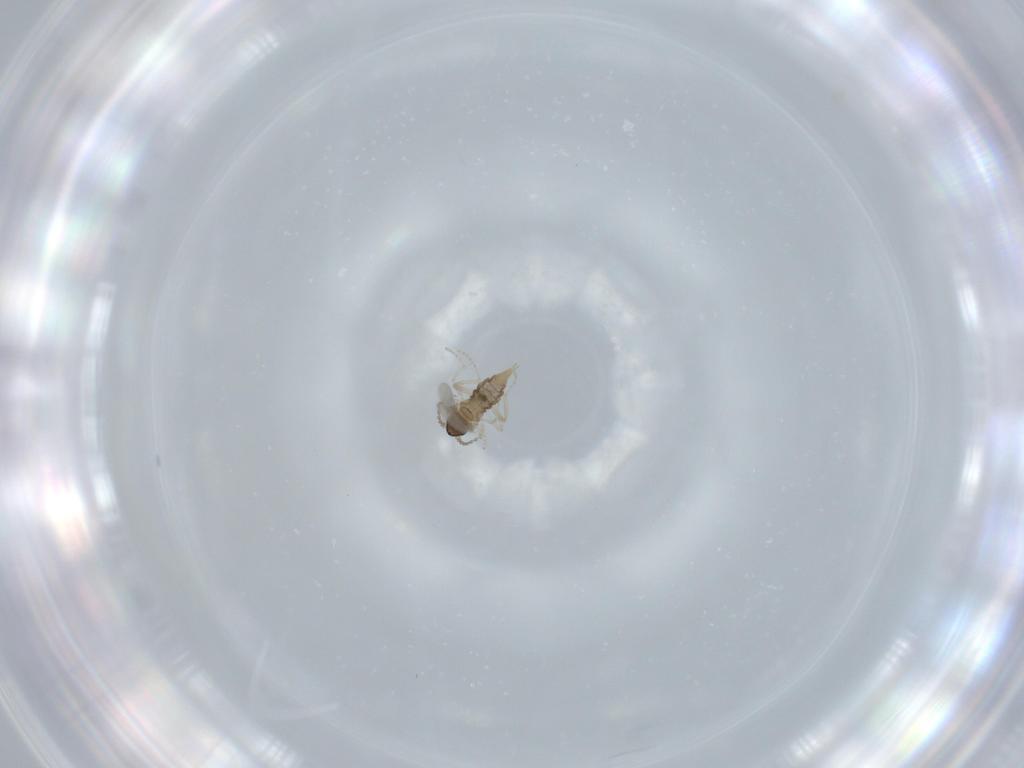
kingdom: Animalia
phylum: Arthropoda
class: Insecta
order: Diptera
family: Cecidomyiidae
